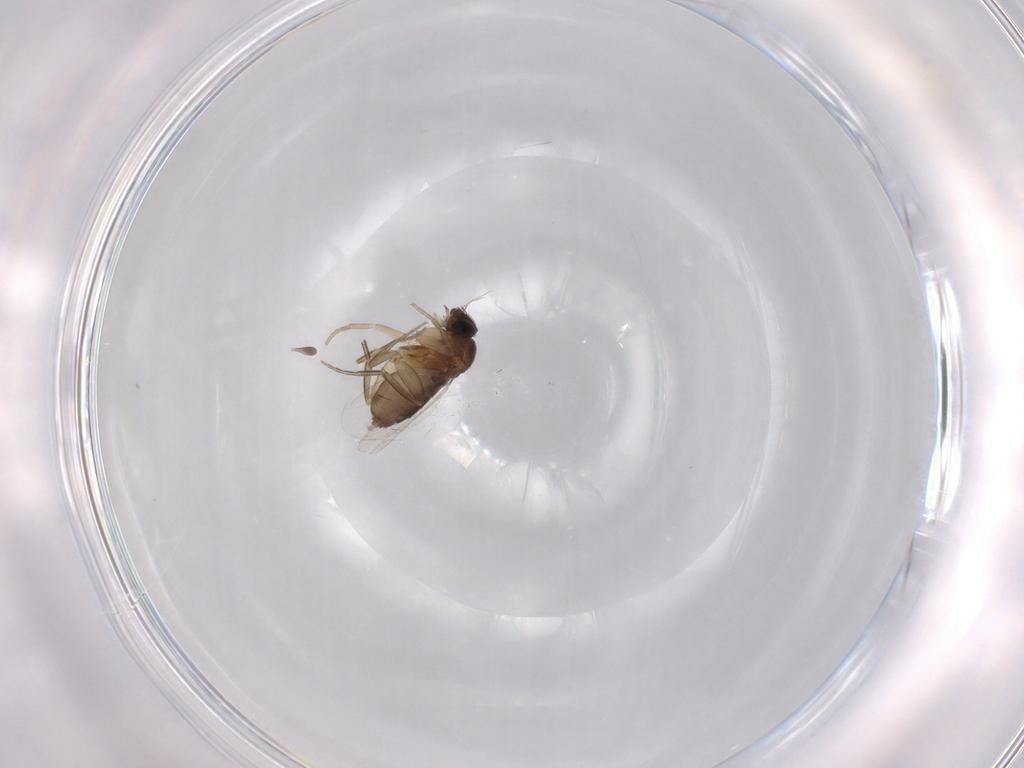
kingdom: Animalia
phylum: Arthropoda
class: Insecta
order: Diptera
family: Phoridae
